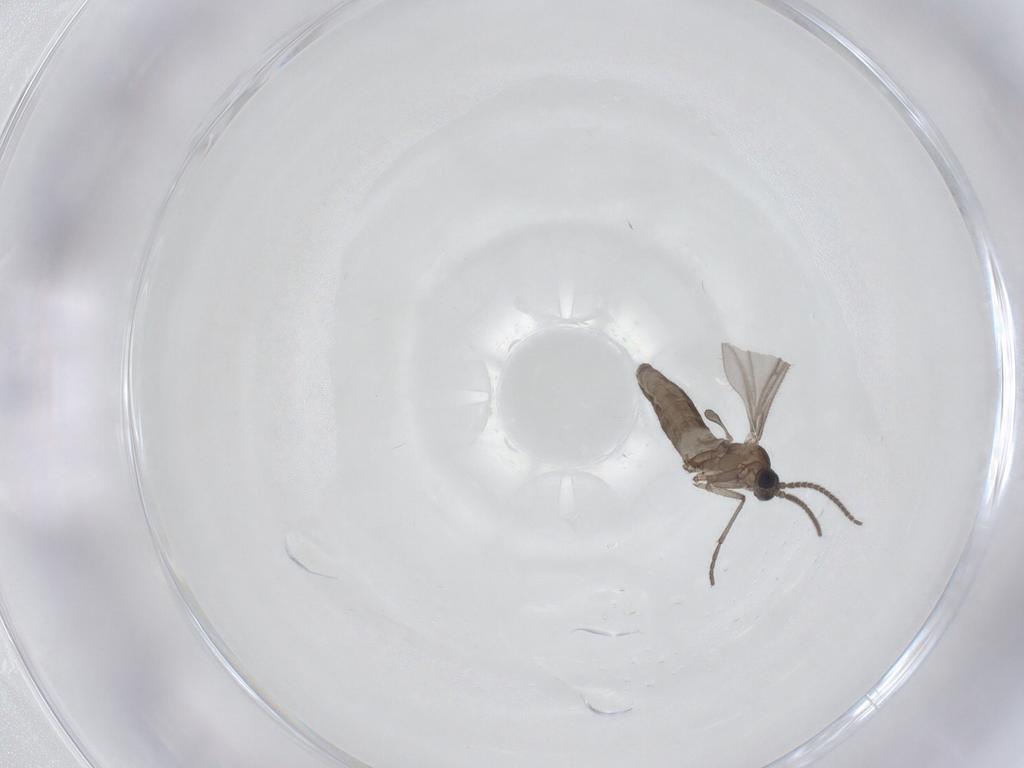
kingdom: Animalia
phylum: Arthropoda
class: Insecta
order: Diptera
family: Sciaridae
